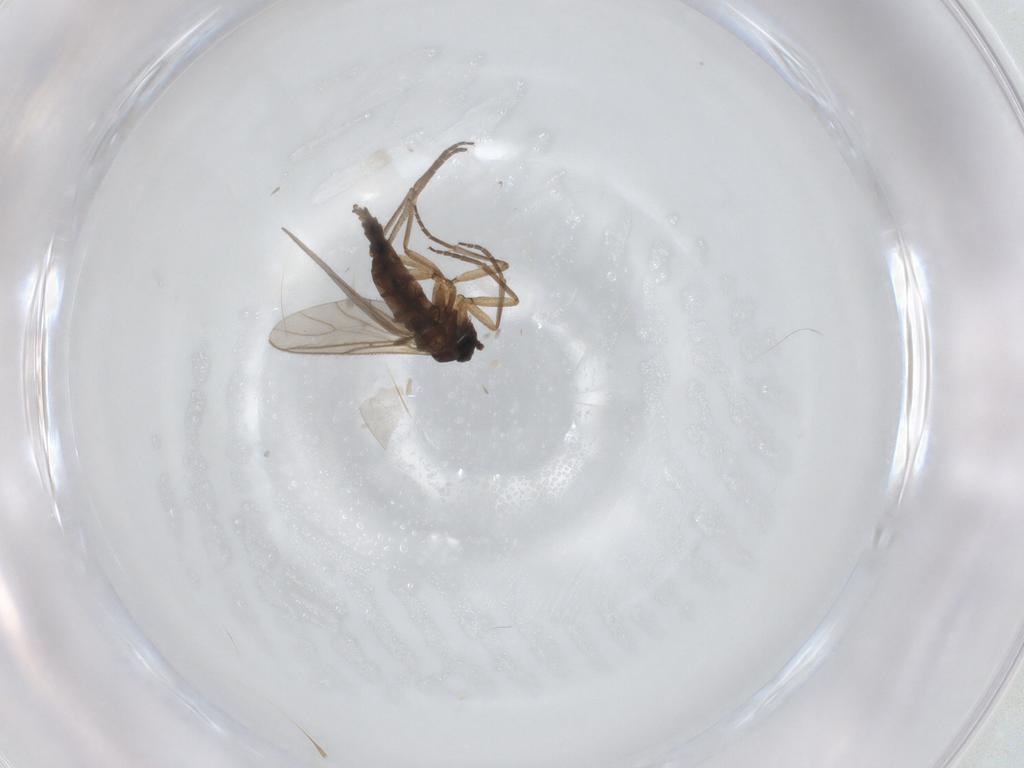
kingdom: Animalia
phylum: Arthropoda
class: Insecta
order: Diptera
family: Sciaridae
